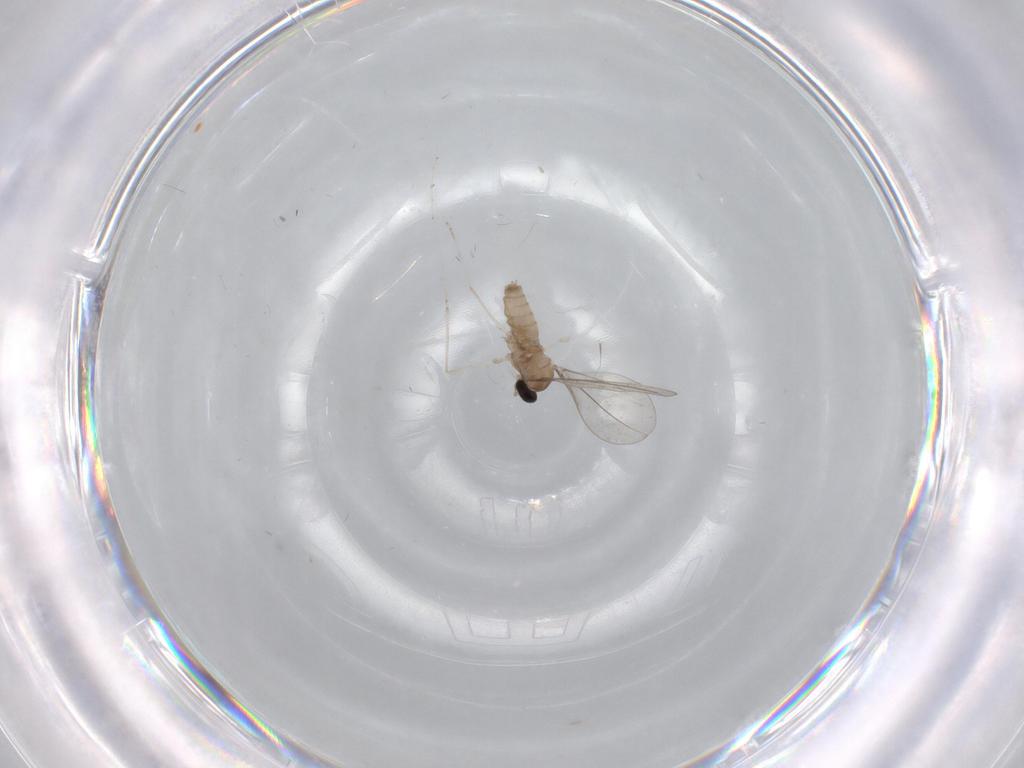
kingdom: Animalia
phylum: Arthropoda
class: Insecta
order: Diptera
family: Cecidomyiidae
